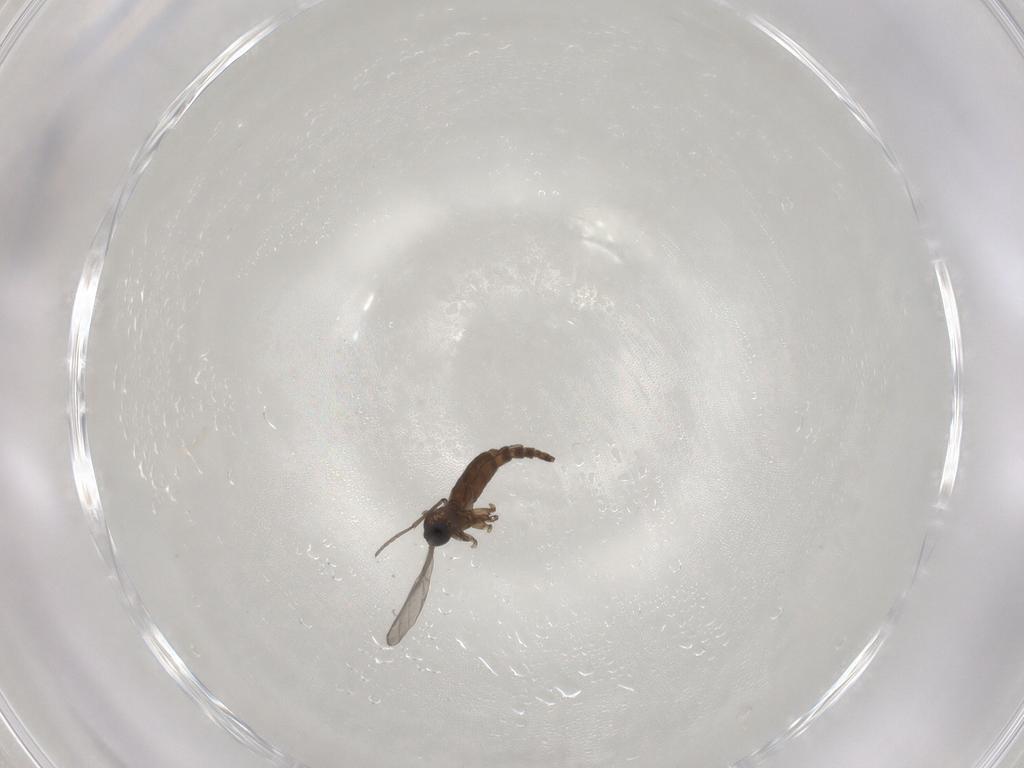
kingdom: Animalia
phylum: Arthropoda
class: Insecta
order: Diptera
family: Sciaridae
